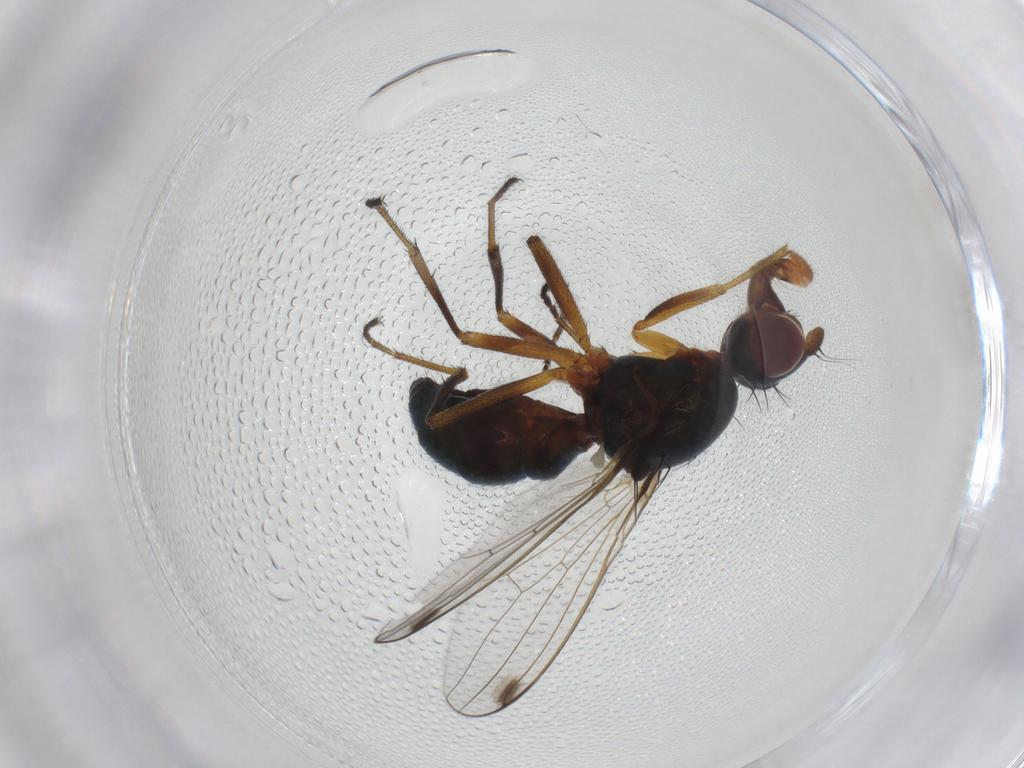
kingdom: Animalia
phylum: Arthropoda
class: Insecta
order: Diptera
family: Sepsidae
